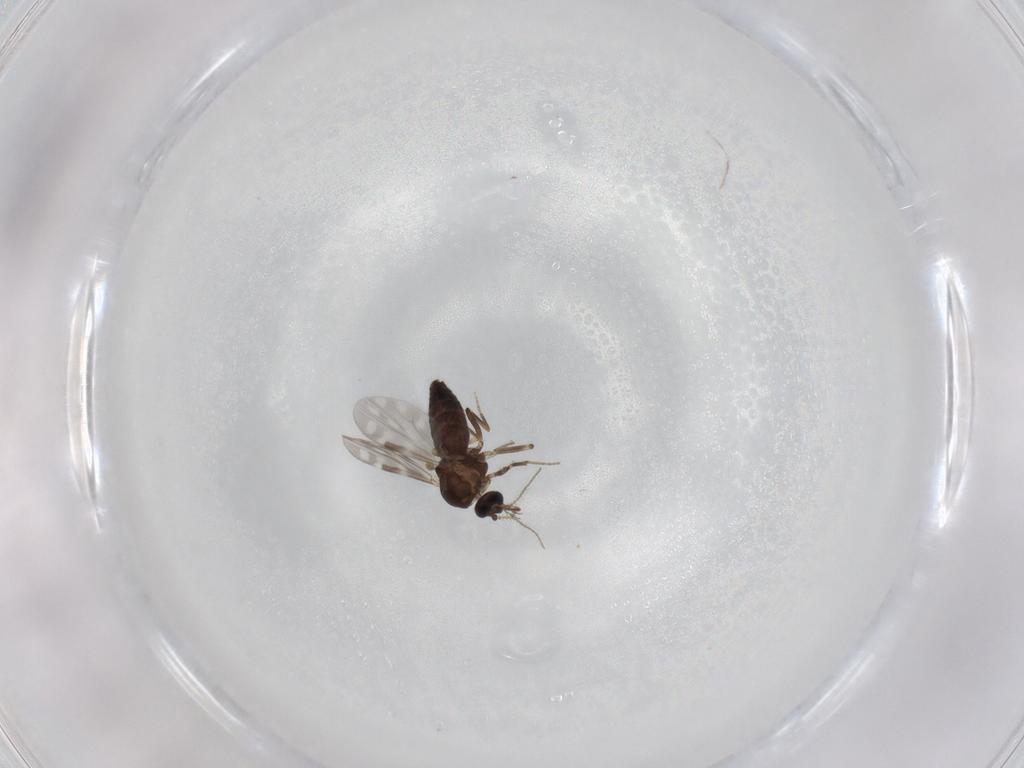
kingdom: Animalia
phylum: Arthropoda
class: Insecta
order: Diptera
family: Ceratopogonidae
